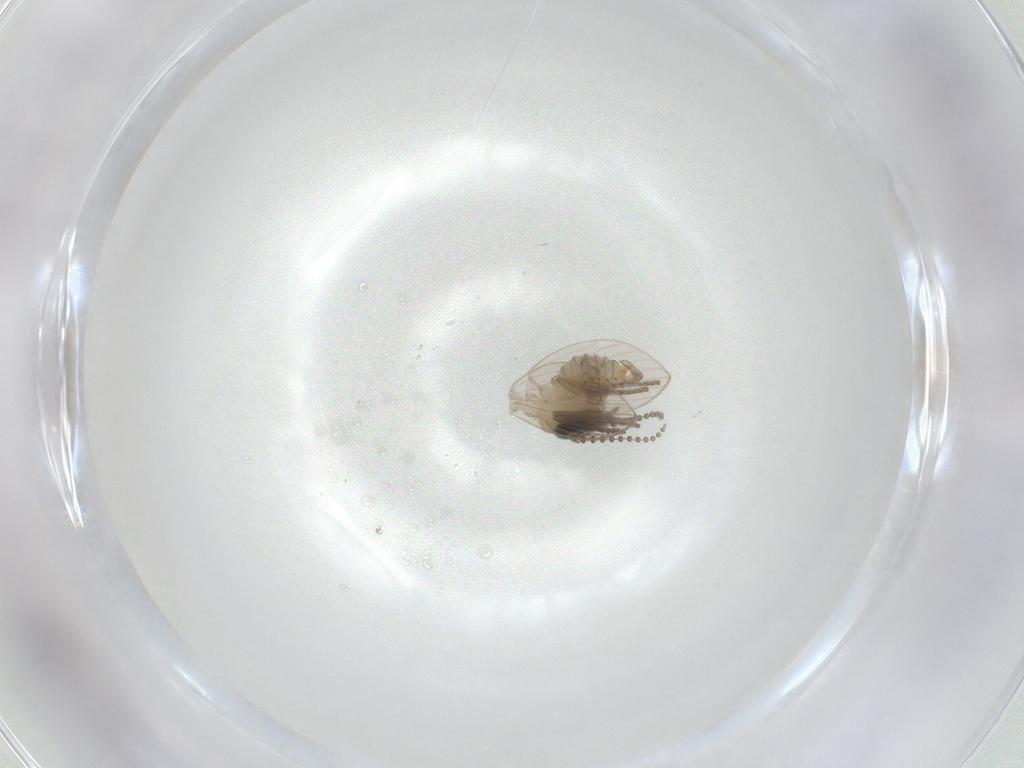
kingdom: Animalia
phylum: Arthropoda
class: Insecta
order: Diptera
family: Psychodidae
